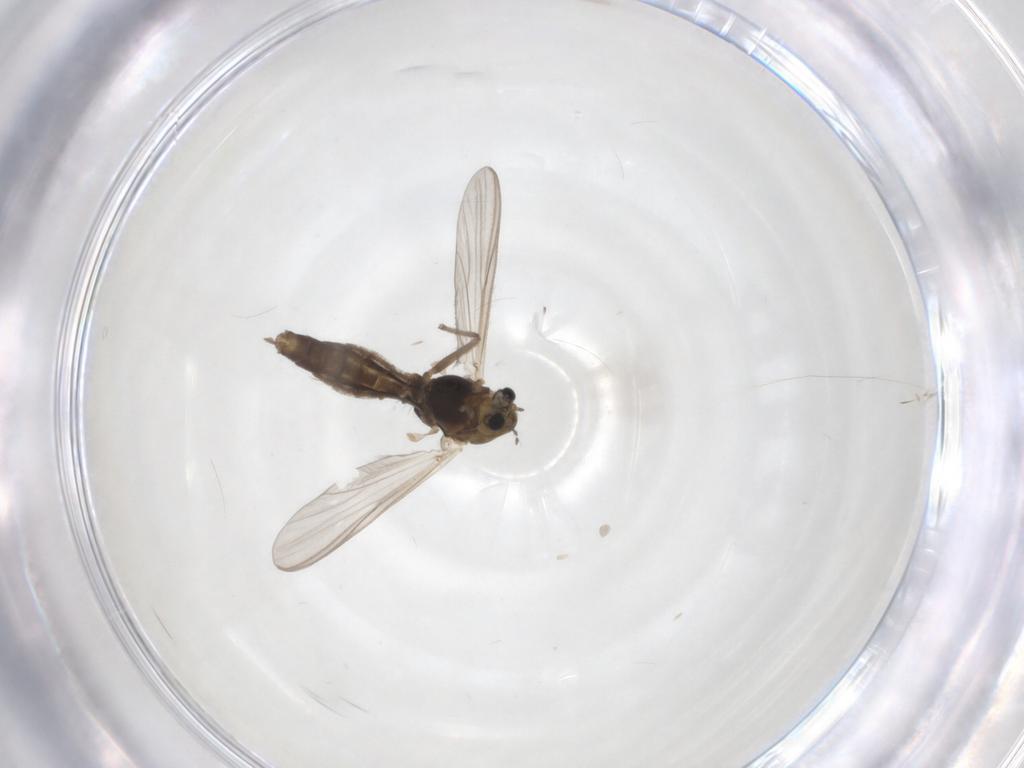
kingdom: Animalia
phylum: Arthropoda
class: Insecta
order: Diptera
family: Chironomidae
